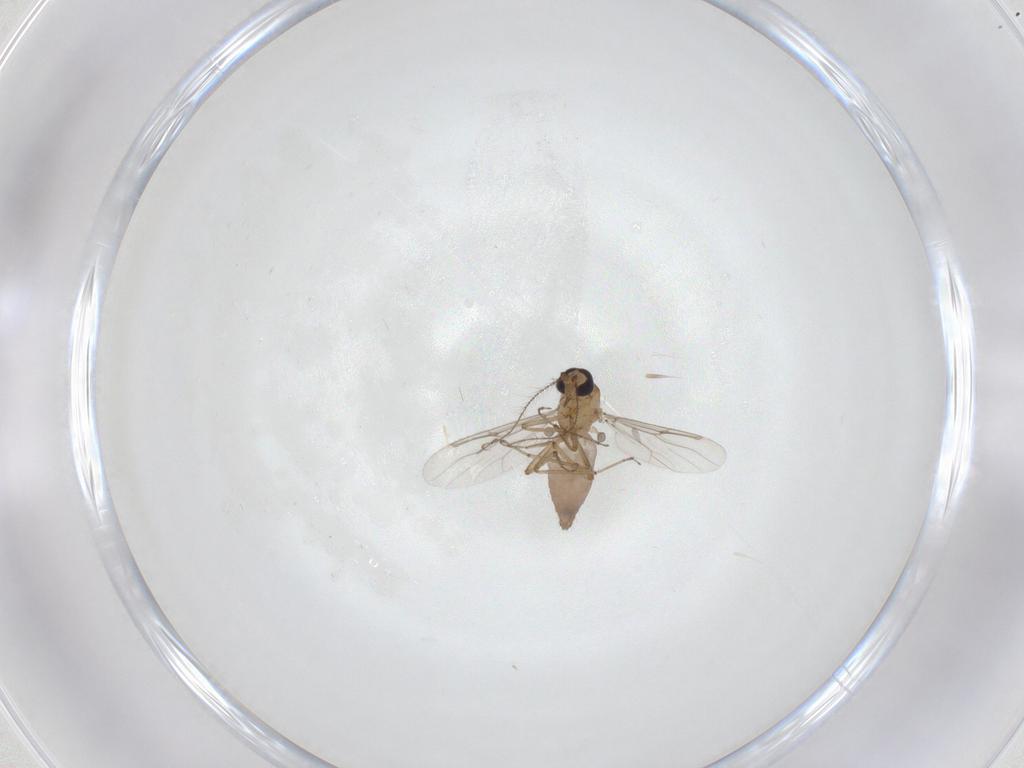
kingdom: Animalia
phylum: Arthropoda
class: Insecta
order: Diptera
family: Ceratopogonidae
